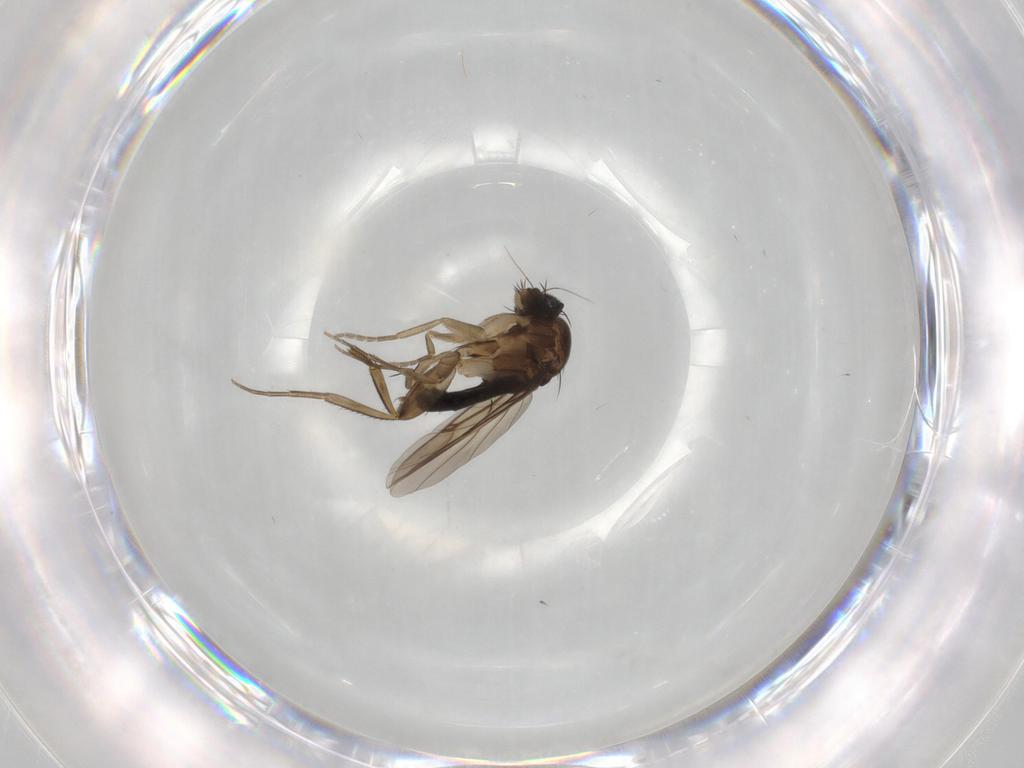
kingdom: Animalia
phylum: Arthropoda
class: Insecta
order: Diptera
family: Phoridae
